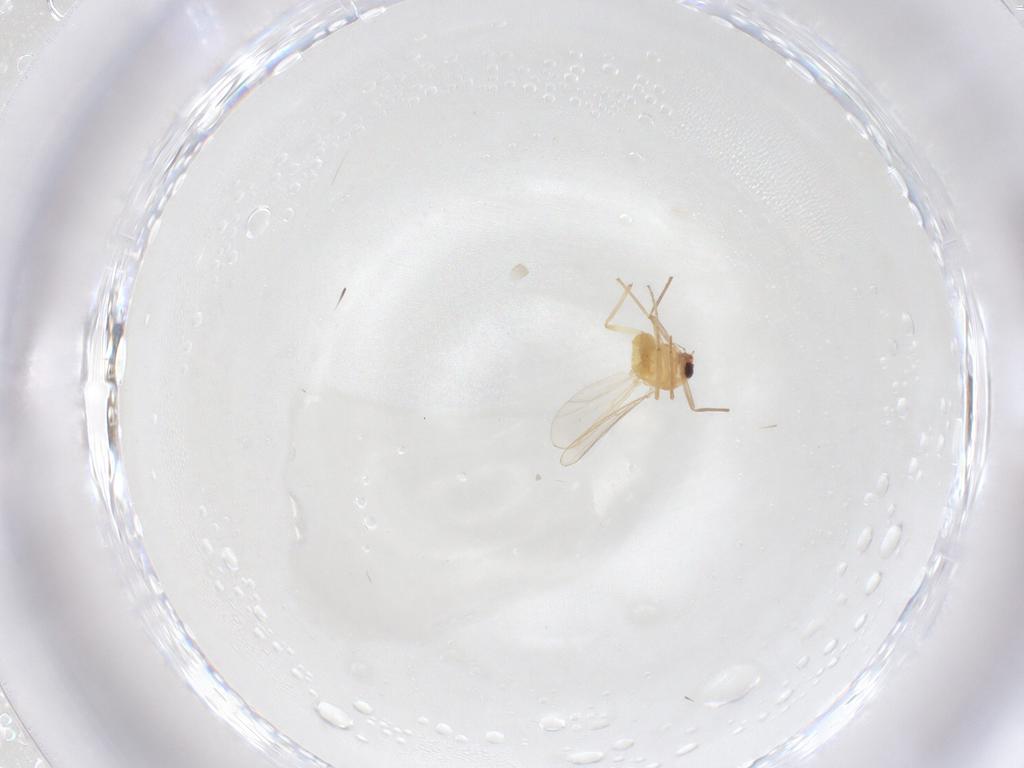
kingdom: Animalia
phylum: Arthropoda
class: Insecta
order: Diptera
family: Chironomidae
